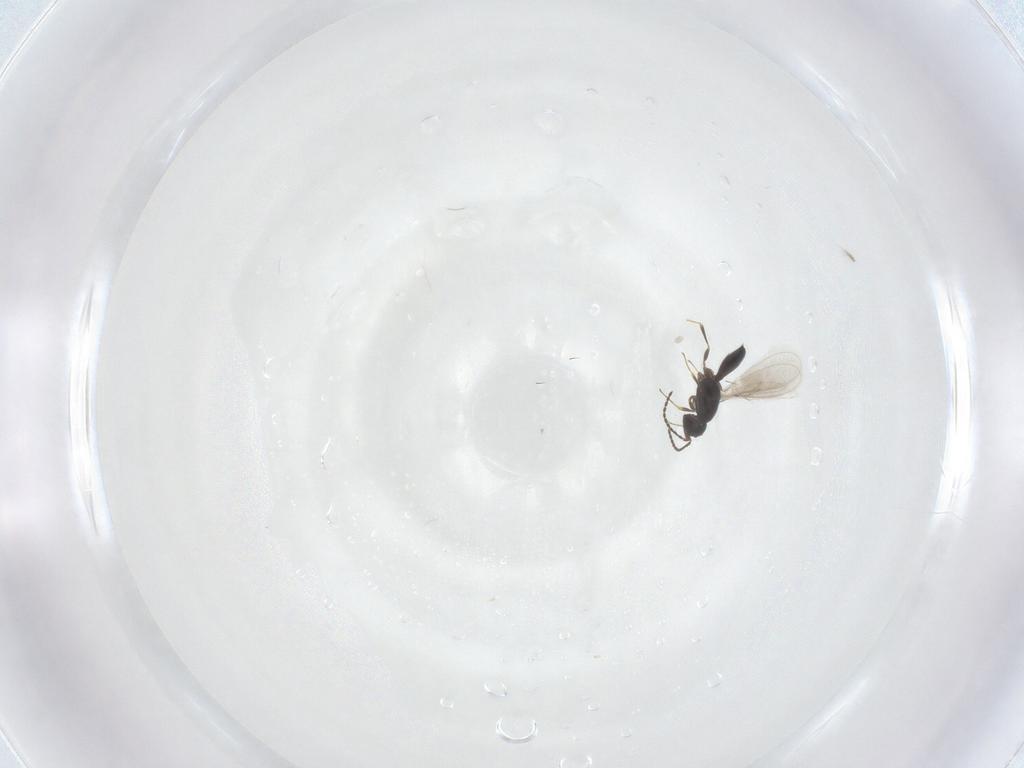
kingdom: Animalia
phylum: Arthropoda
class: Insecta
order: Hymenoptera
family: Scelionidae
